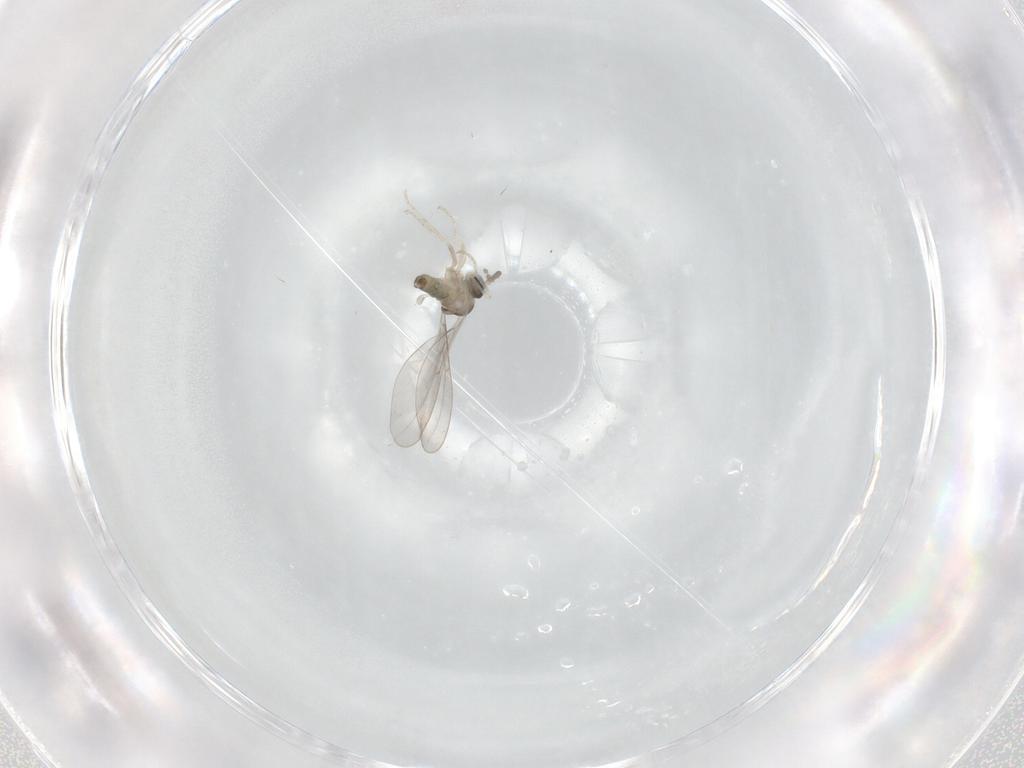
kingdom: Animalia
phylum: Arthropoda
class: Insecta
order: Diptera
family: Cecidomyiidae
